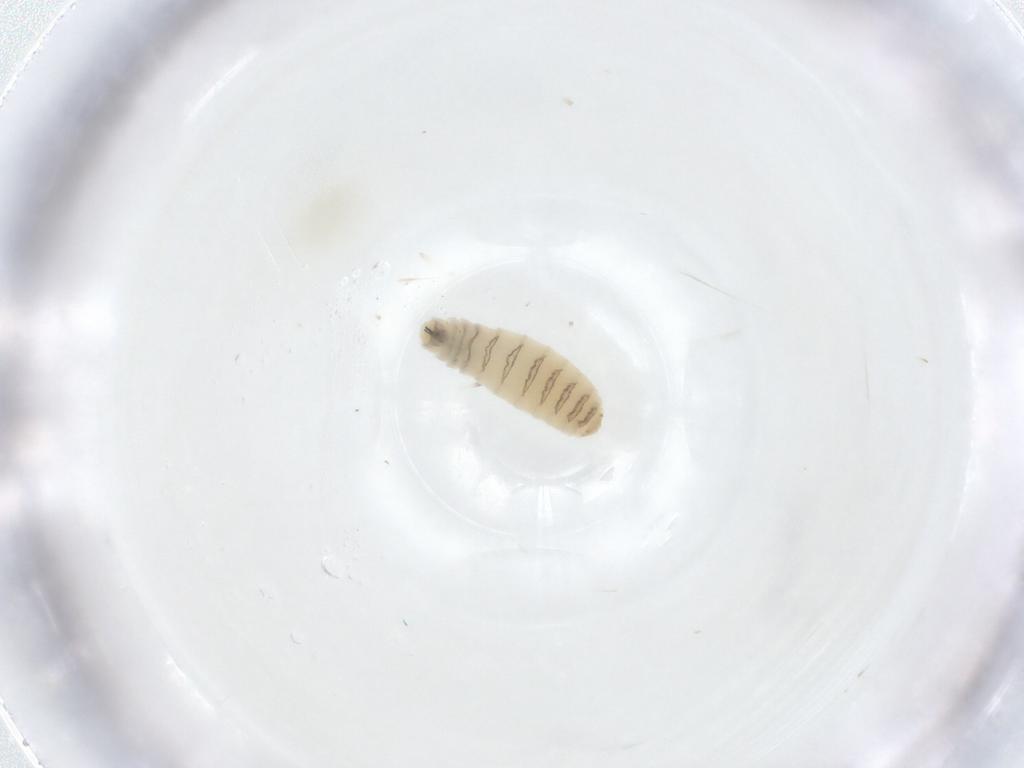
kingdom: Animalia
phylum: Arthropoda
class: Insecta
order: Diptera
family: Sarcophagidae
